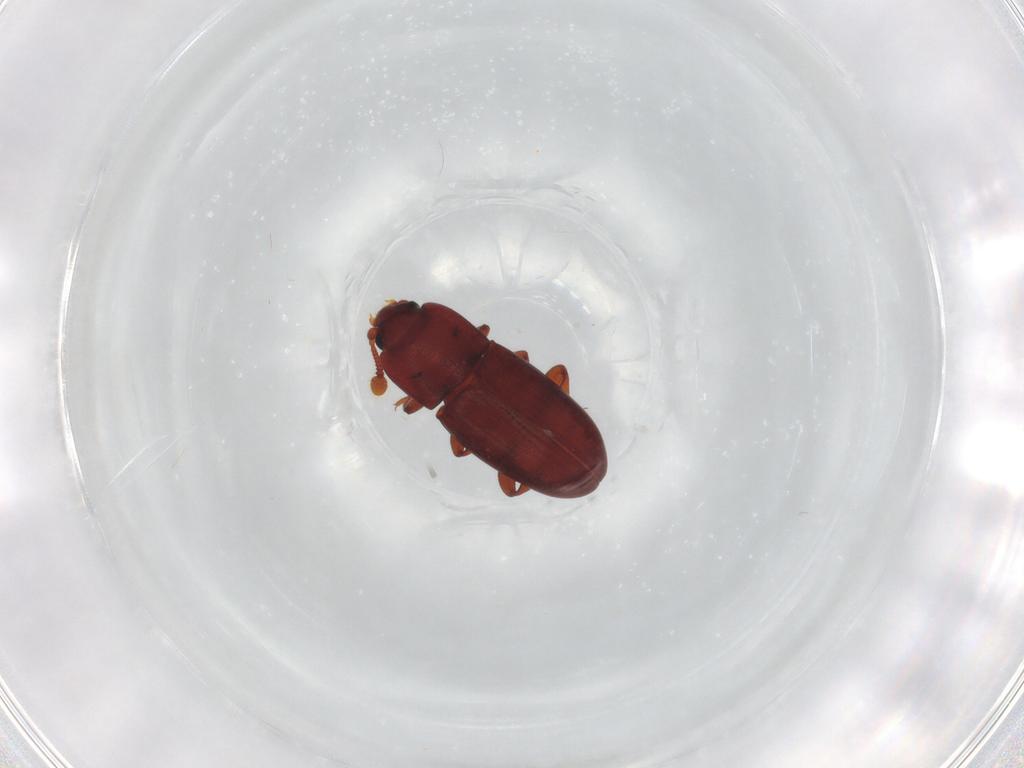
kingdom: Animalia
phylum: Arthropoda
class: Insecta
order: Coleoptera
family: Cerylonidae
